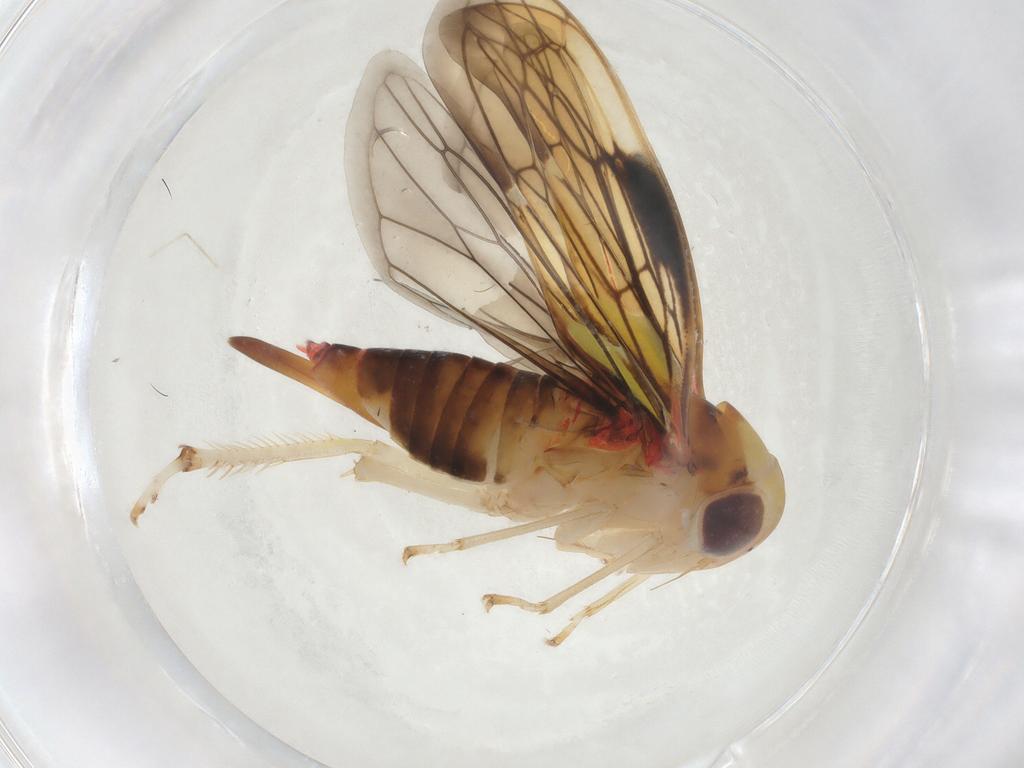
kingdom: Animalia
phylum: Arthropoda
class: Insecta
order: Hemiptera
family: Cicadellidae
